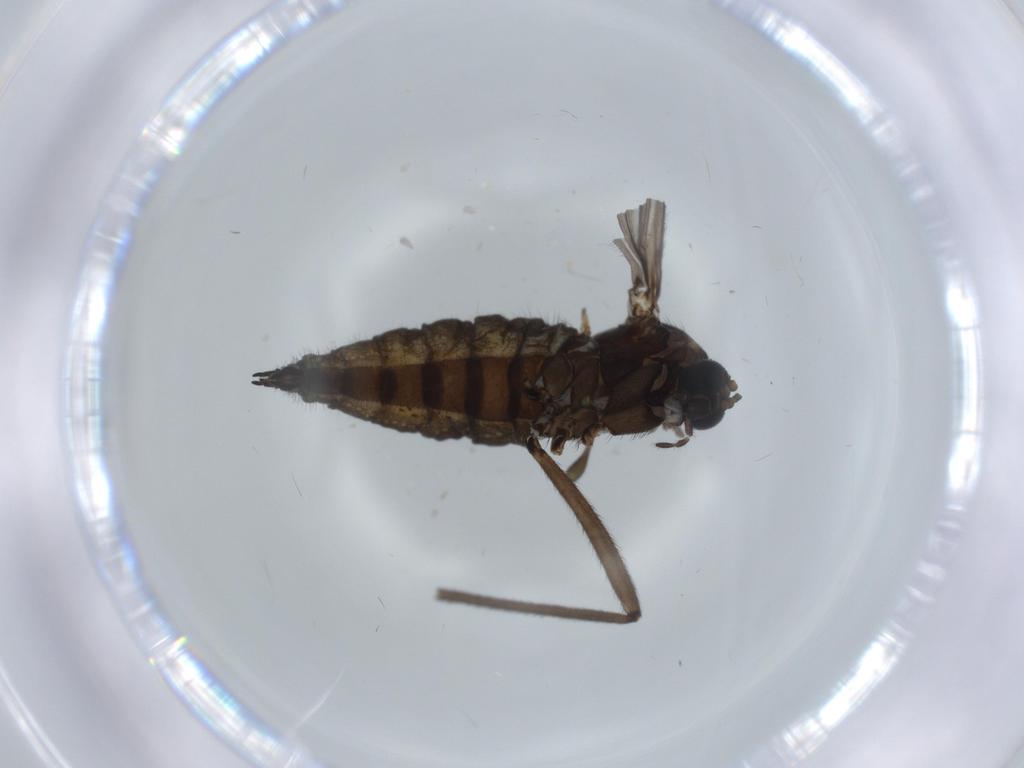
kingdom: Animalia
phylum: Arthropoda
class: Insecta
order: Diptera
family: Sciaridae
